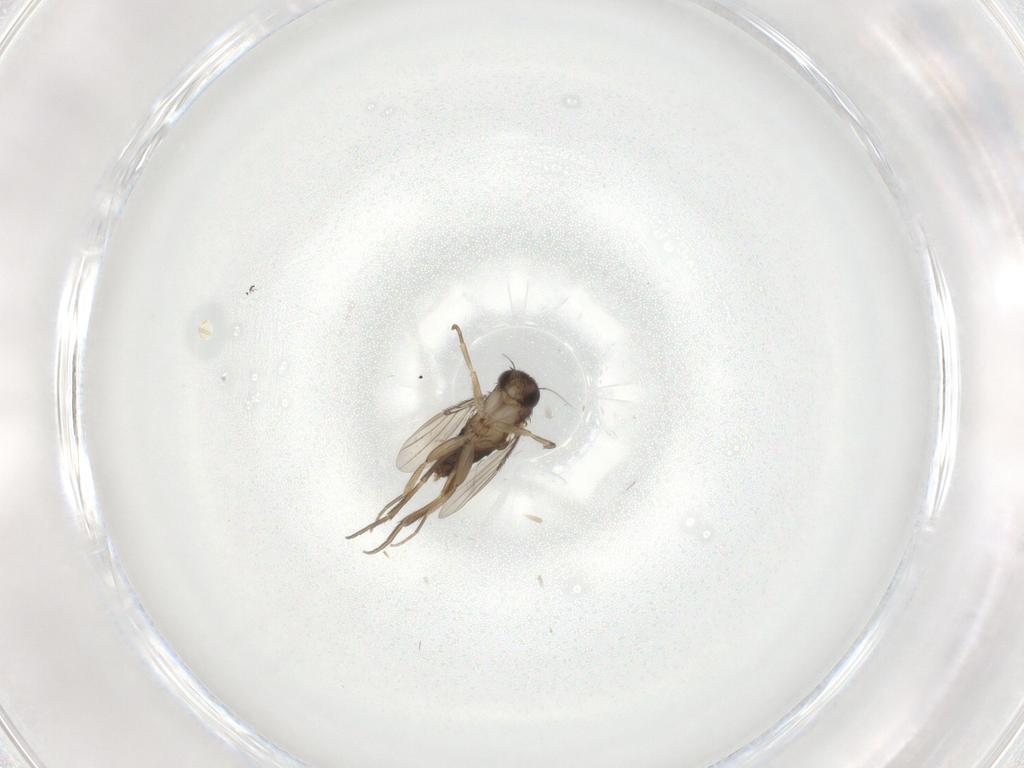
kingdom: Animalia
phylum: Arthropoda
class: Insecta
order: Diptera
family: Phoridae
